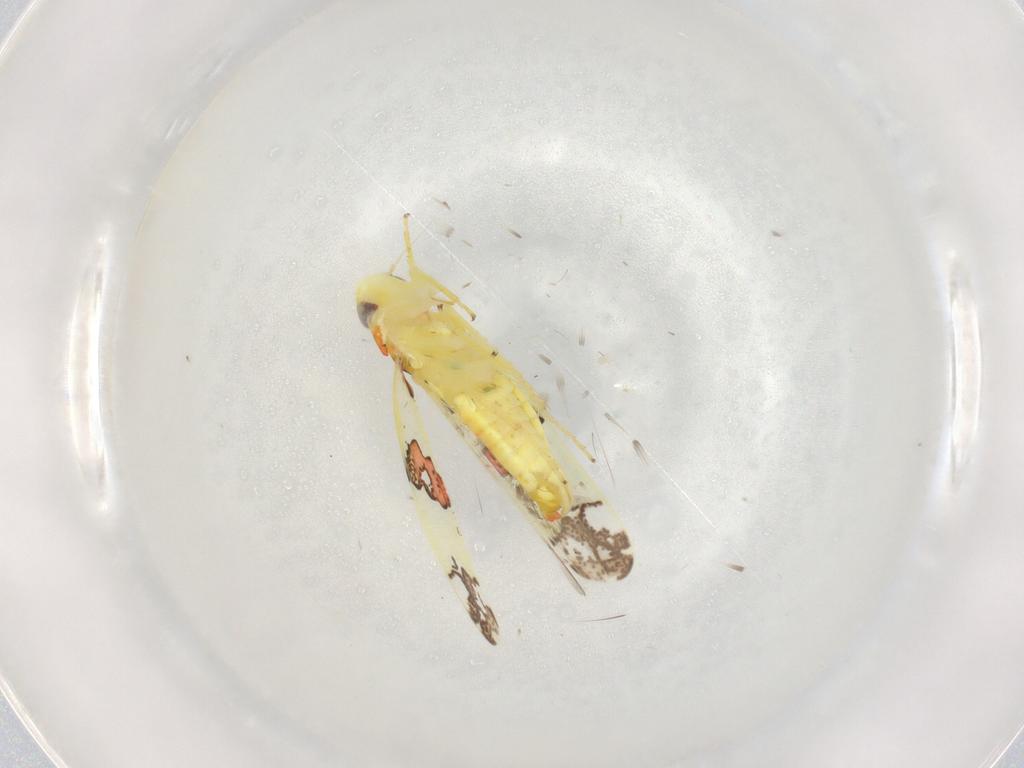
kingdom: Animalia
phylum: Arthropoda
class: Insecta
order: Hemiptera
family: Cicadellidae
